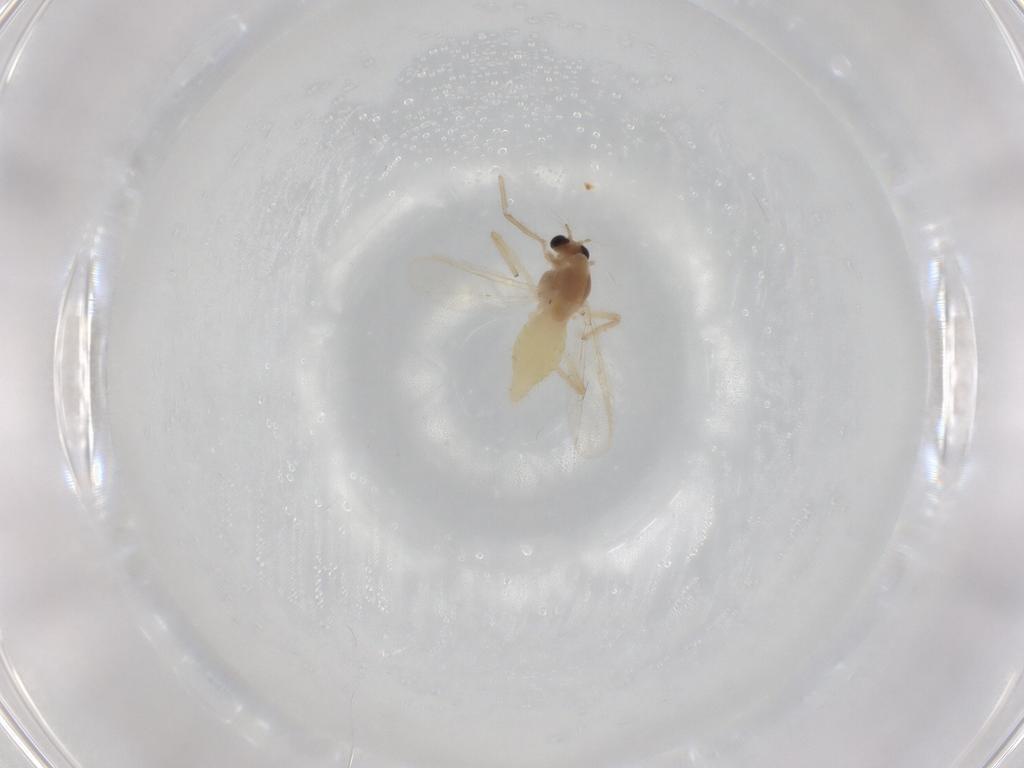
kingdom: Animalia
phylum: Arthropoda
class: Insecta
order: Diptera
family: Chironomidae
